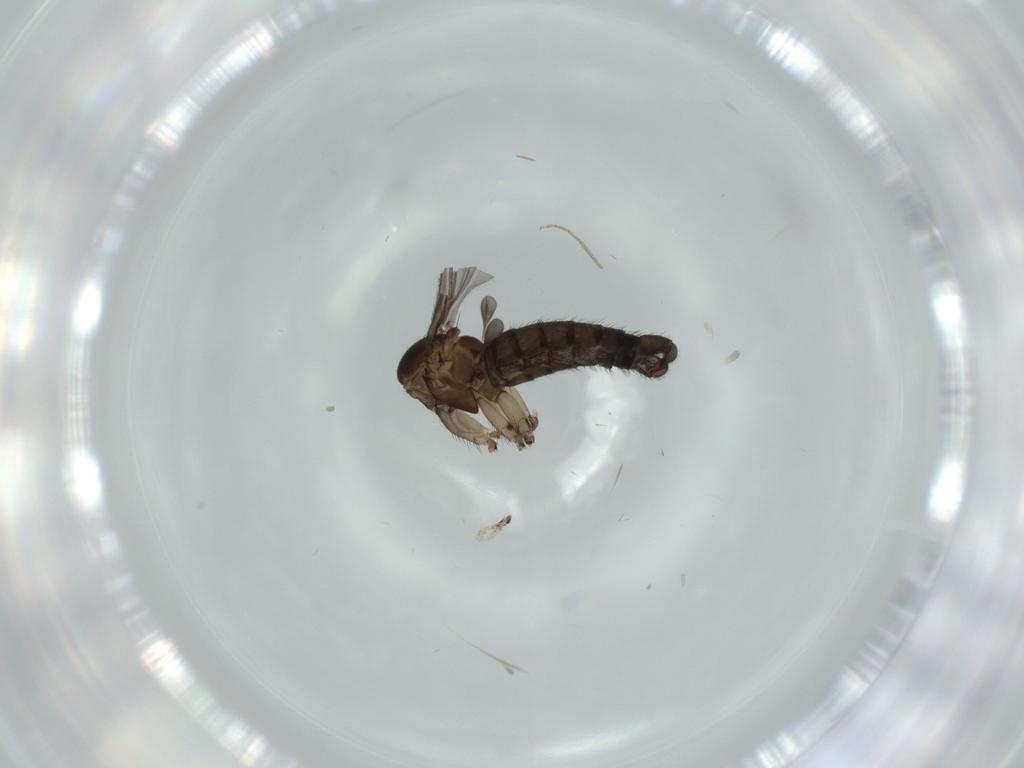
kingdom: Animalia
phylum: Arthropoda
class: Insecta
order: Diptera
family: Sciaridae
